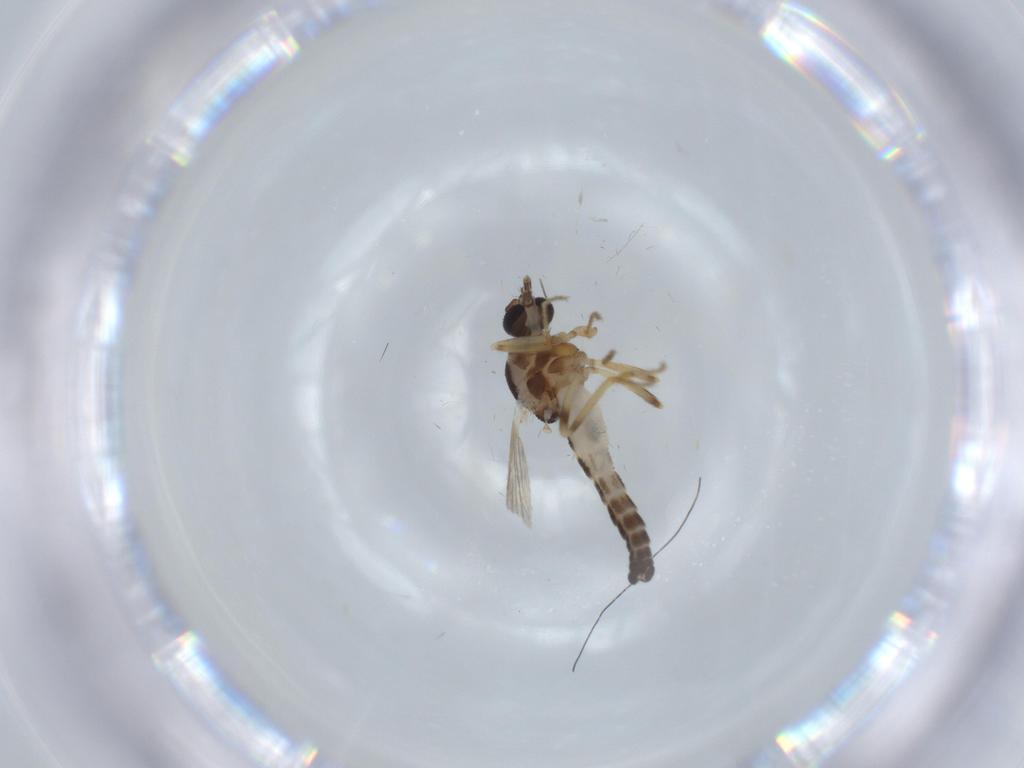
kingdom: Animalia
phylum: Arthropoda
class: Insecta
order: Diptera
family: Ceratopogonidae
